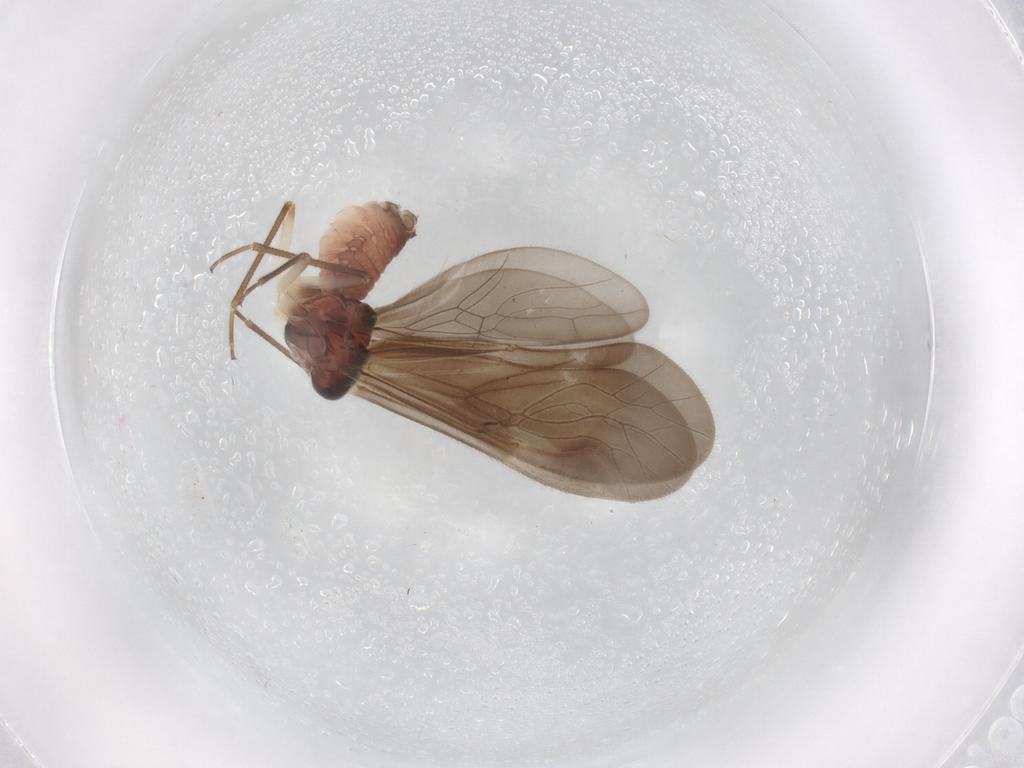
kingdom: Animalia
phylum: Arthropoda
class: Insecta
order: Psocodea
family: Caeciliusidae
